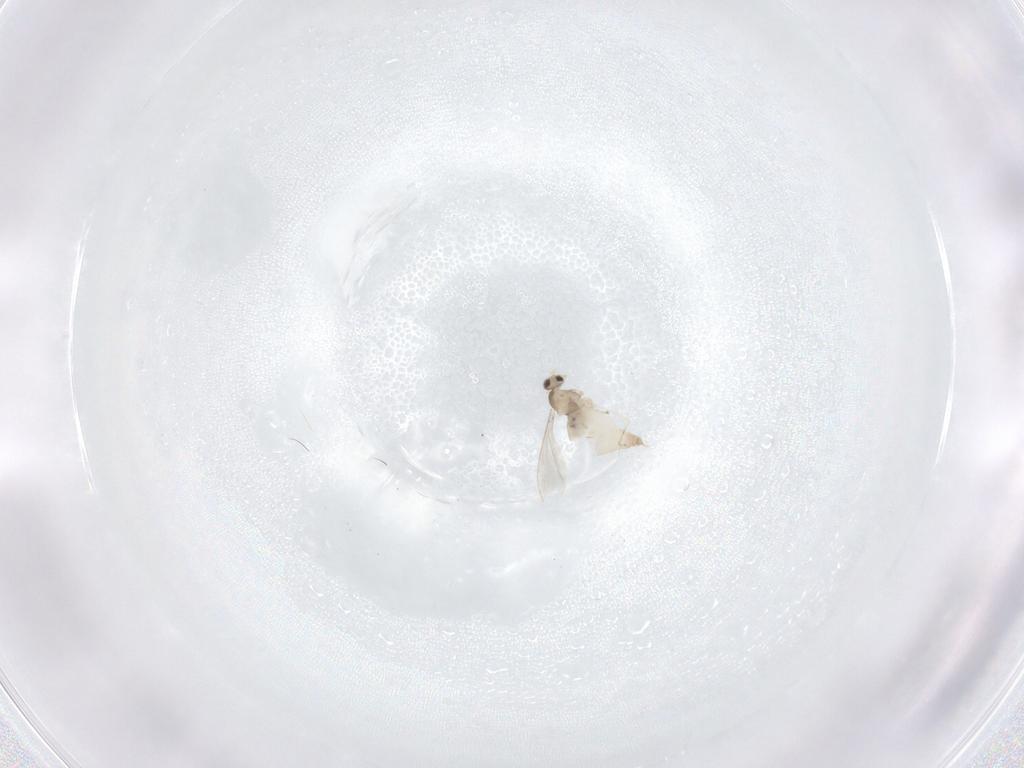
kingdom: Animalia
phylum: Arthropoda
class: Insecta
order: Diptera
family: Cecidomyiidae
